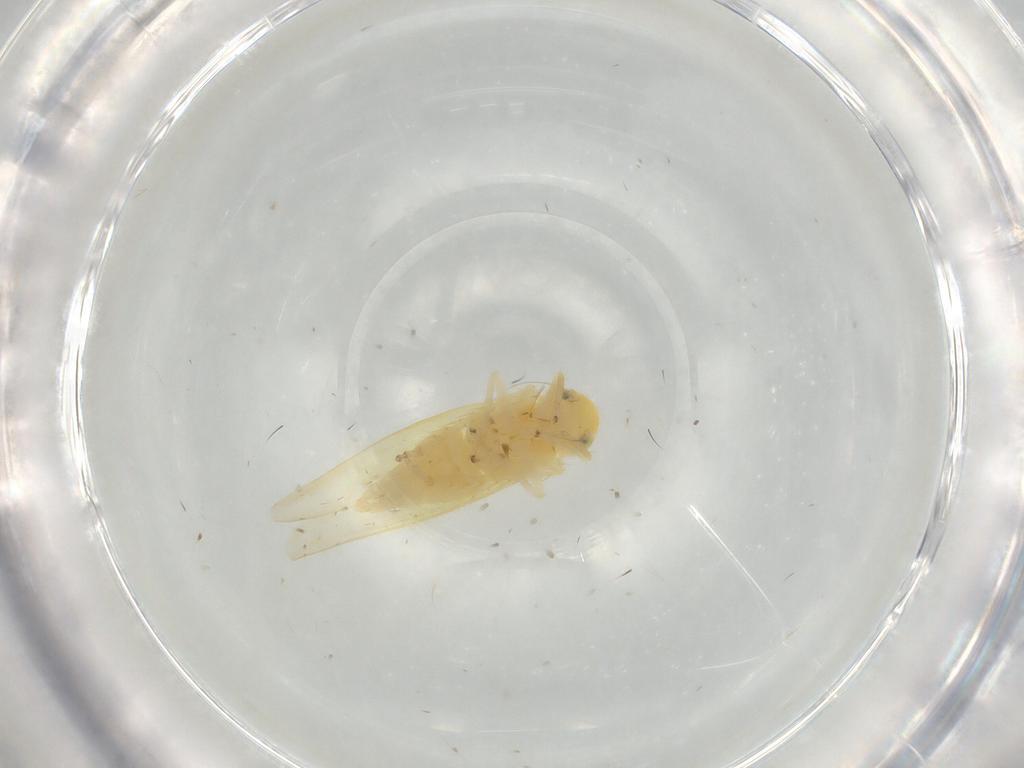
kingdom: Animalia
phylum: Arthropoda
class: Insecta
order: Hemiptera
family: Cicadellidae
